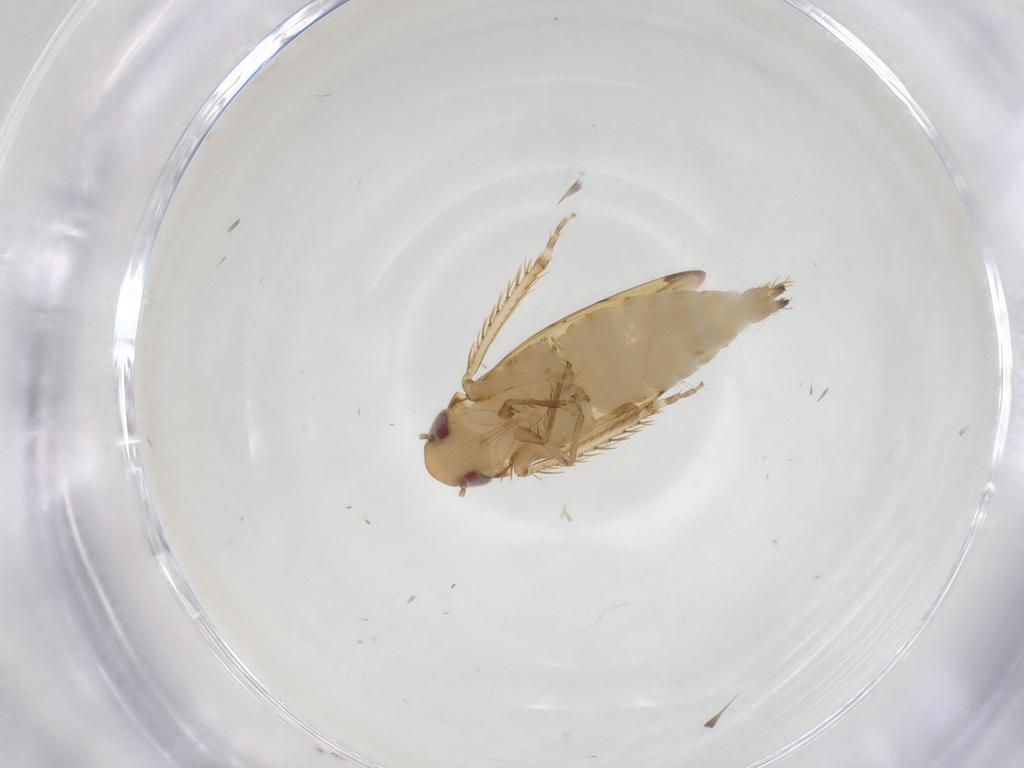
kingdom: Animalia
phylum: Arthropoda
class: Insecta
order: Hemiptera
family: Cicadellidae
